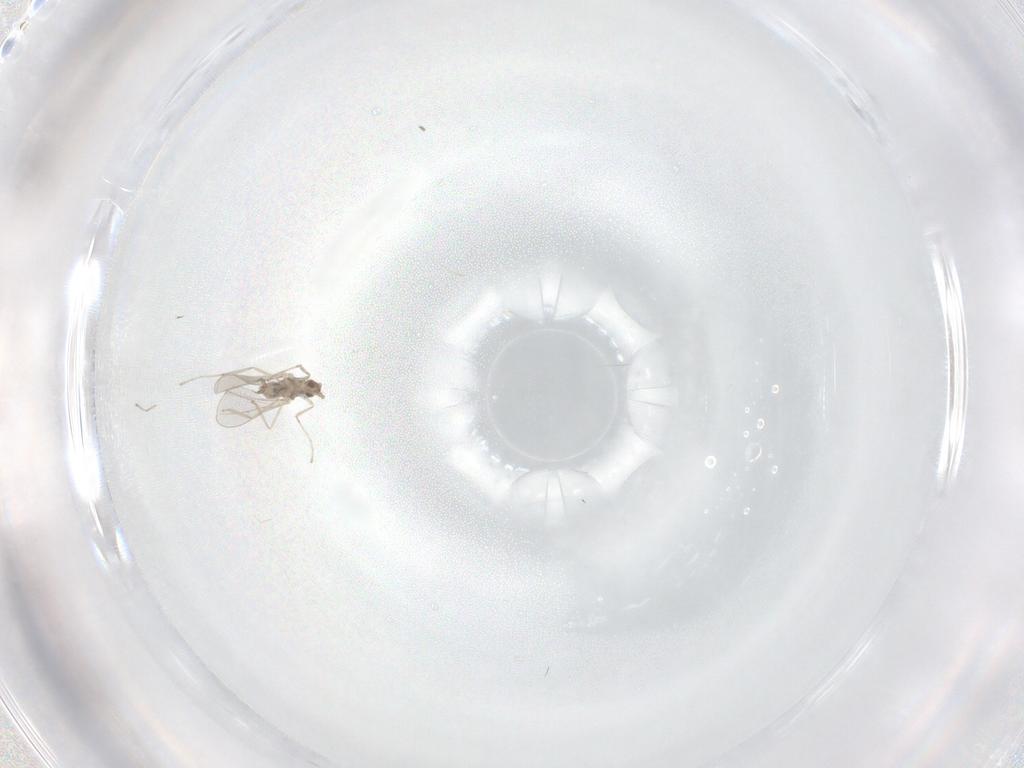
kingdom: Animalia
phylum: Arthropoda
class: Insecta
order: Diptera
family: Cecidomyiidae
